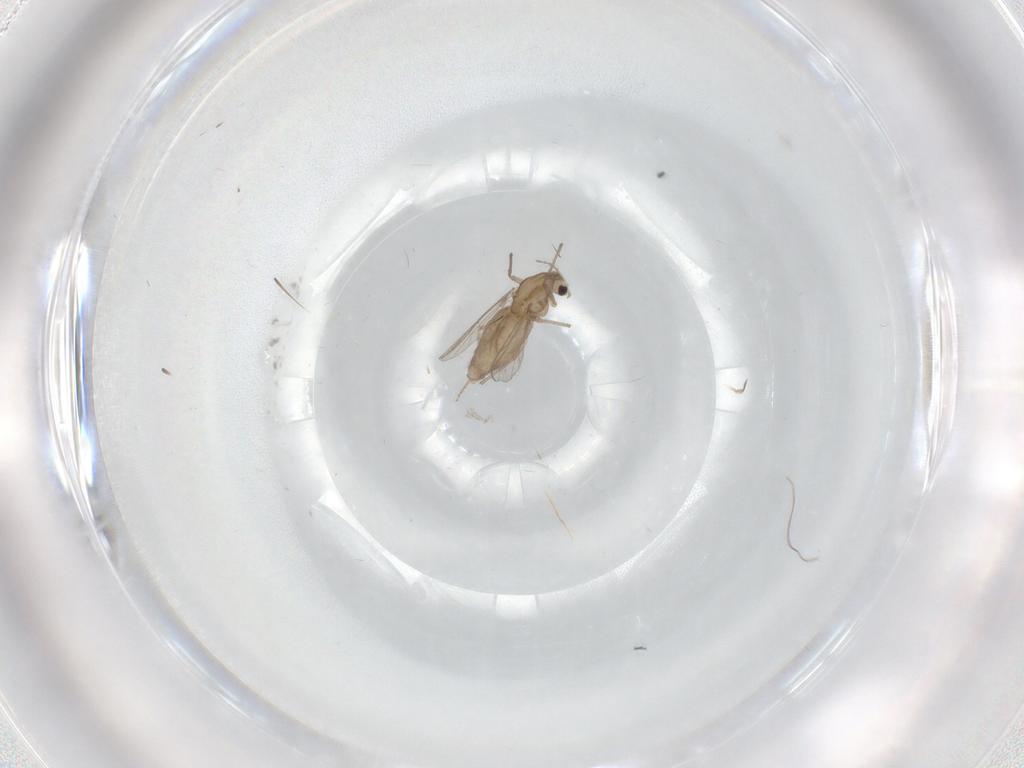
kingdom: Animalia
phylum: Arthropoda
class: Insecta
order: Diptera
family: Chironomidae
